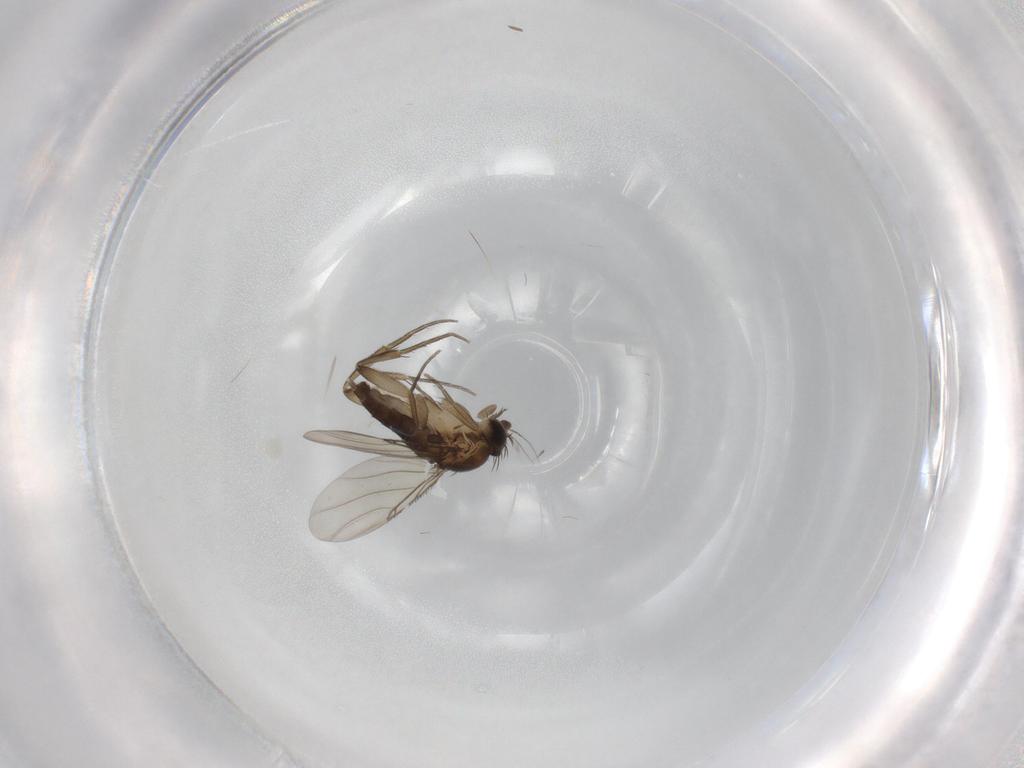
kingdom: Animalia
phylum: Arthropoda
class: Insecta
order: Diptera
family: Phoridae
